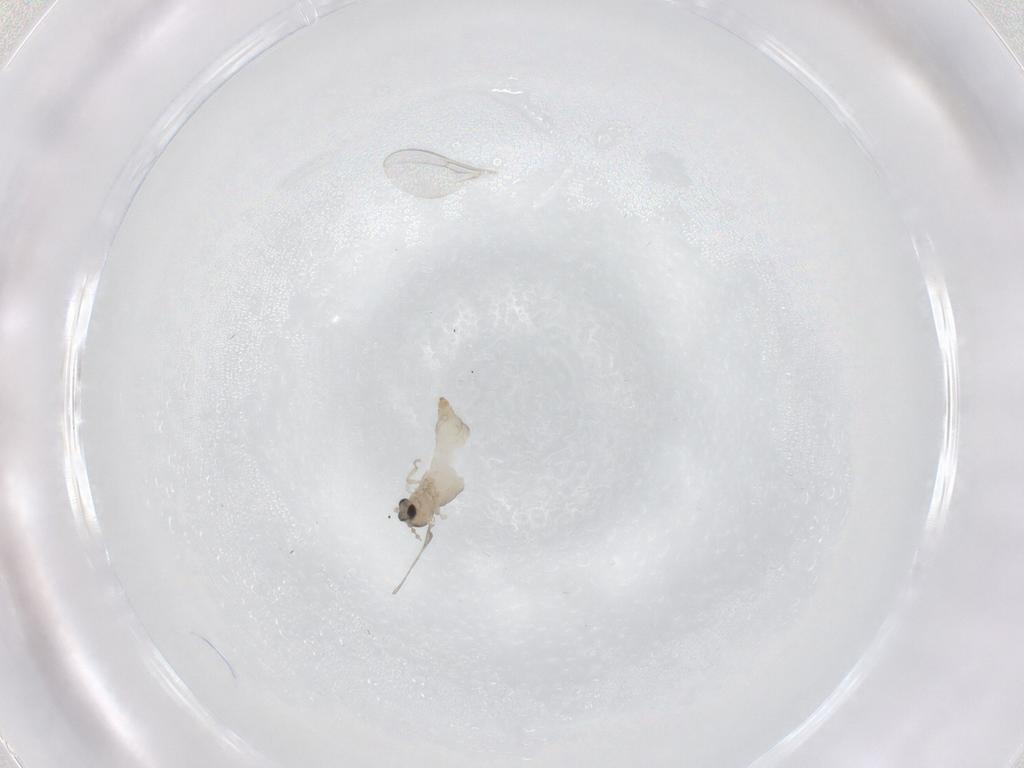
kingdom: Animalia
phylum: Arthropoda
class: Insecta
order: Diptera
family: Cecidomyiidae
